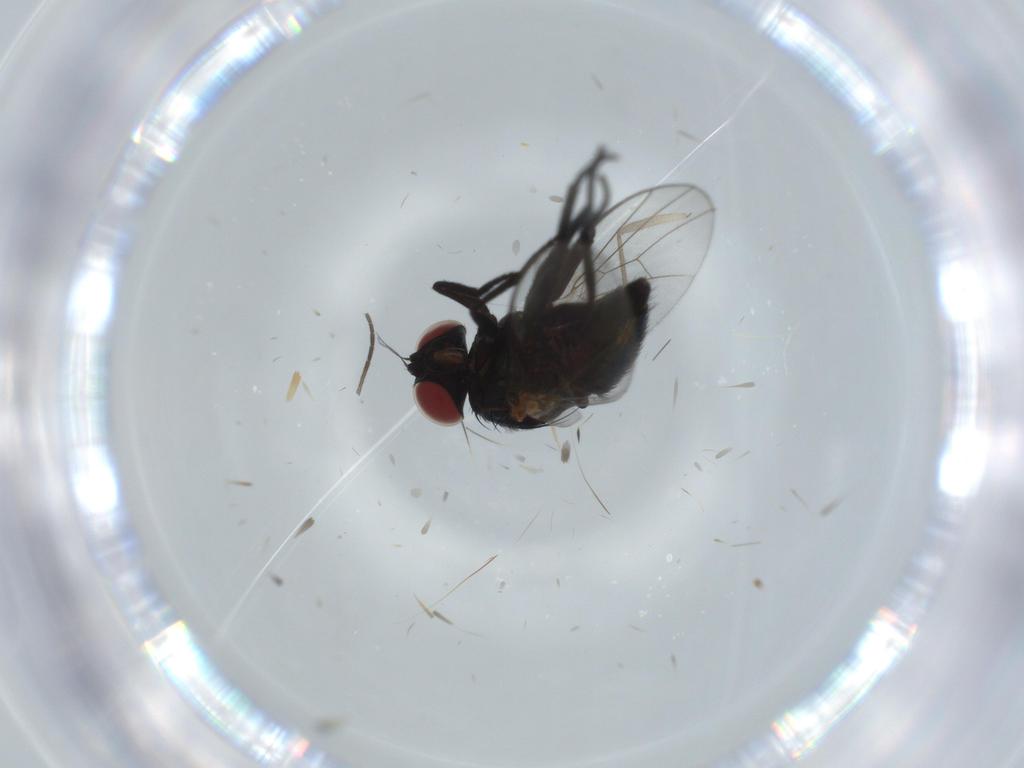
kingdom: Animalia
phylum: Arthropoda
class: Insecta
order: Diptera
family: Agromyzidae
